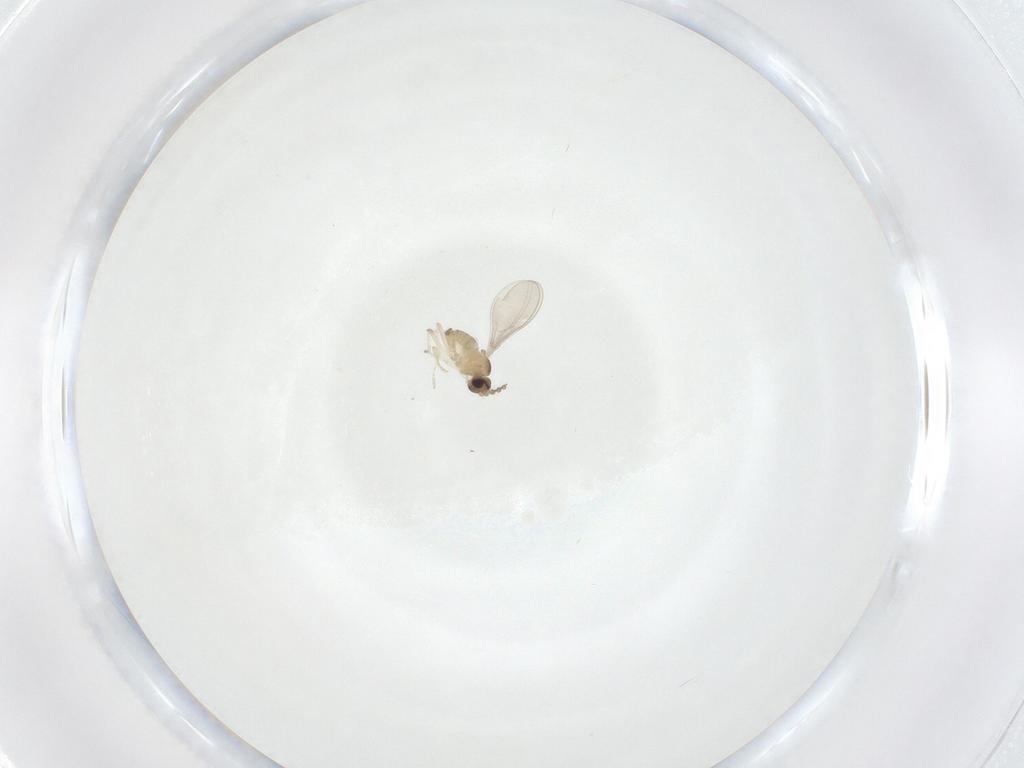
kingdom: Animalia
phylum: Arthropoda
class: Insecta
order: Diptera
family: Cecidomyiidae
